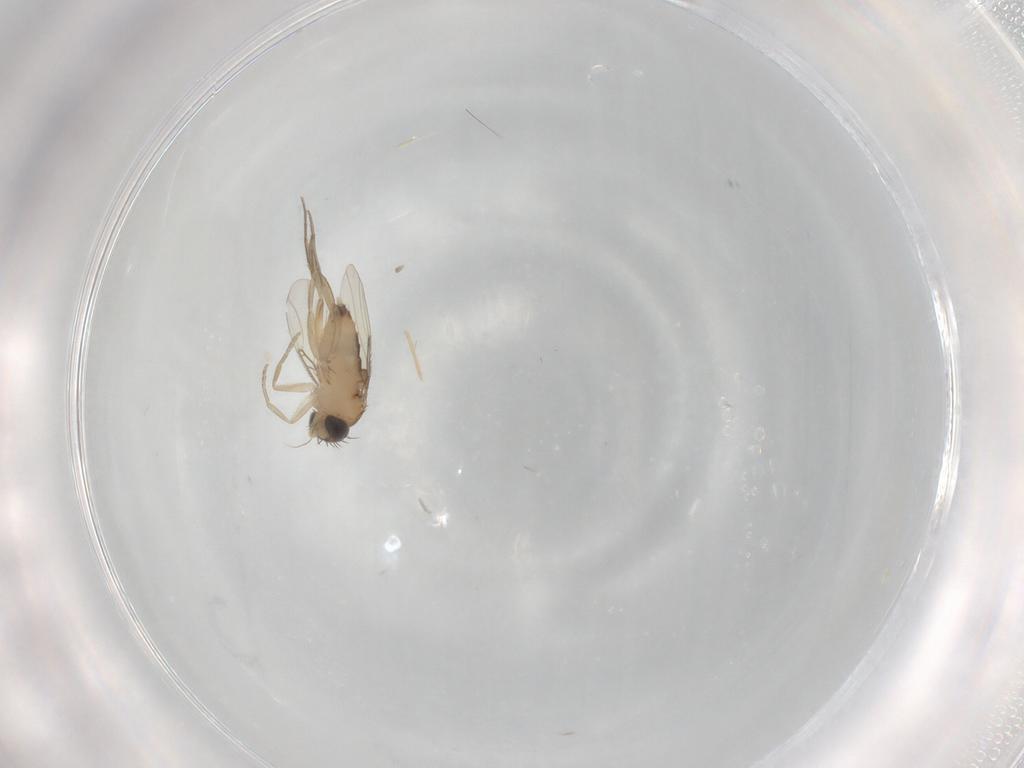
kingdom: Animalia
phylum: Arthropoda
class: Insecta
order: Diptera
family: Phoridae
